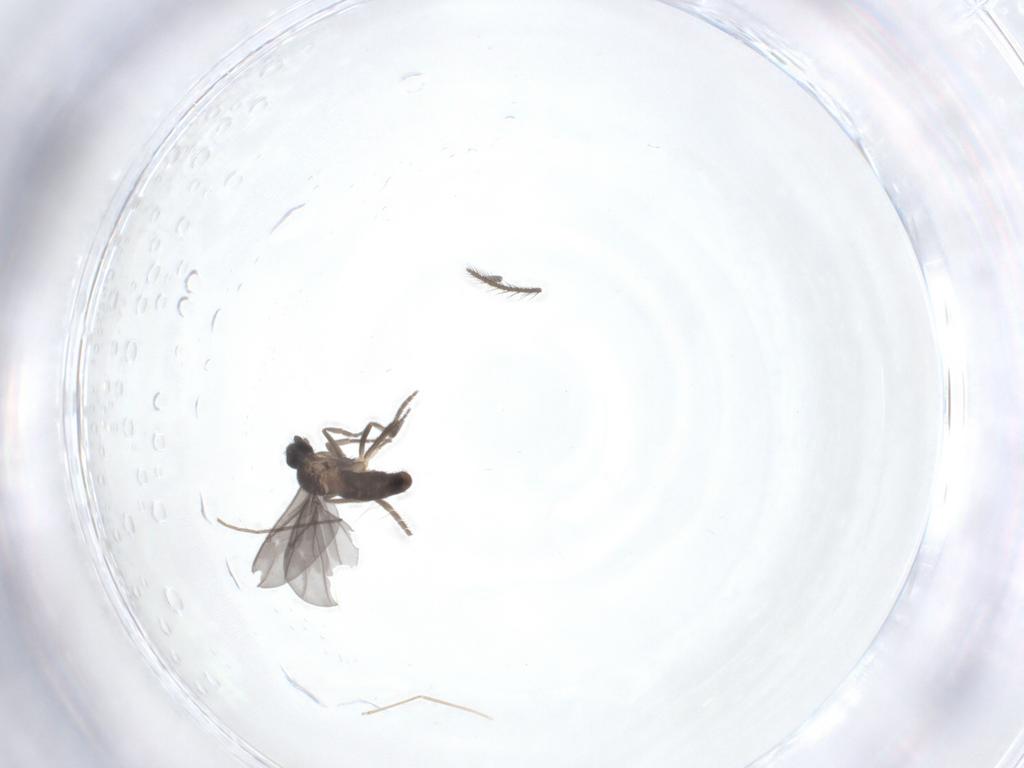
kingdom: Animalia
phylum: Arthropoda
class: Insecta
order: Diptera
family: Phoridae
